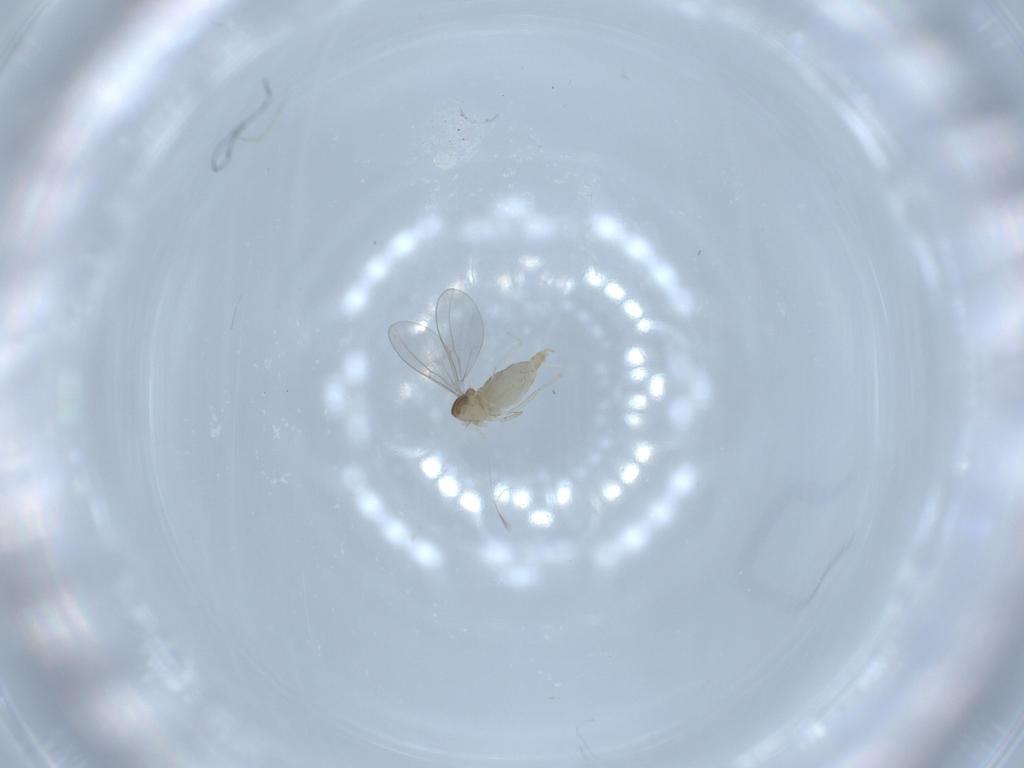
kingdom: Animalia
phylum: Arthropoda
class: Insecta
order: Diptera
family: Cecidomyiidae
